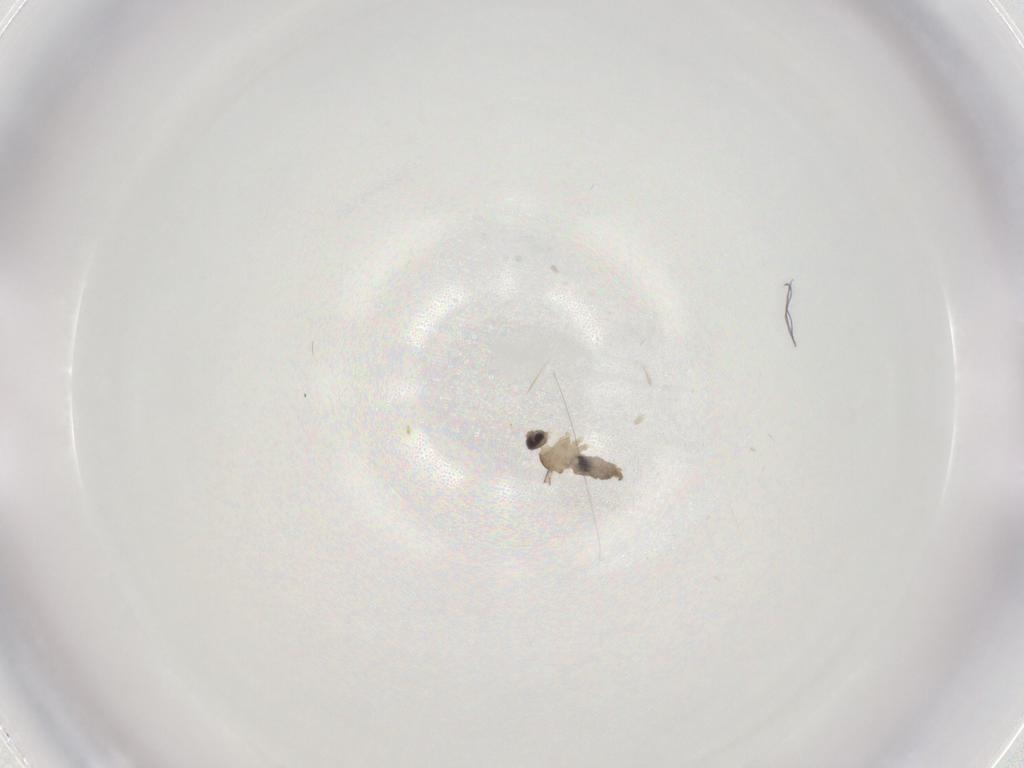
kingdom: Animalia
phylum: Arthropoda
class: Insecta
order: Diptera
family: Cecidomyiidae
